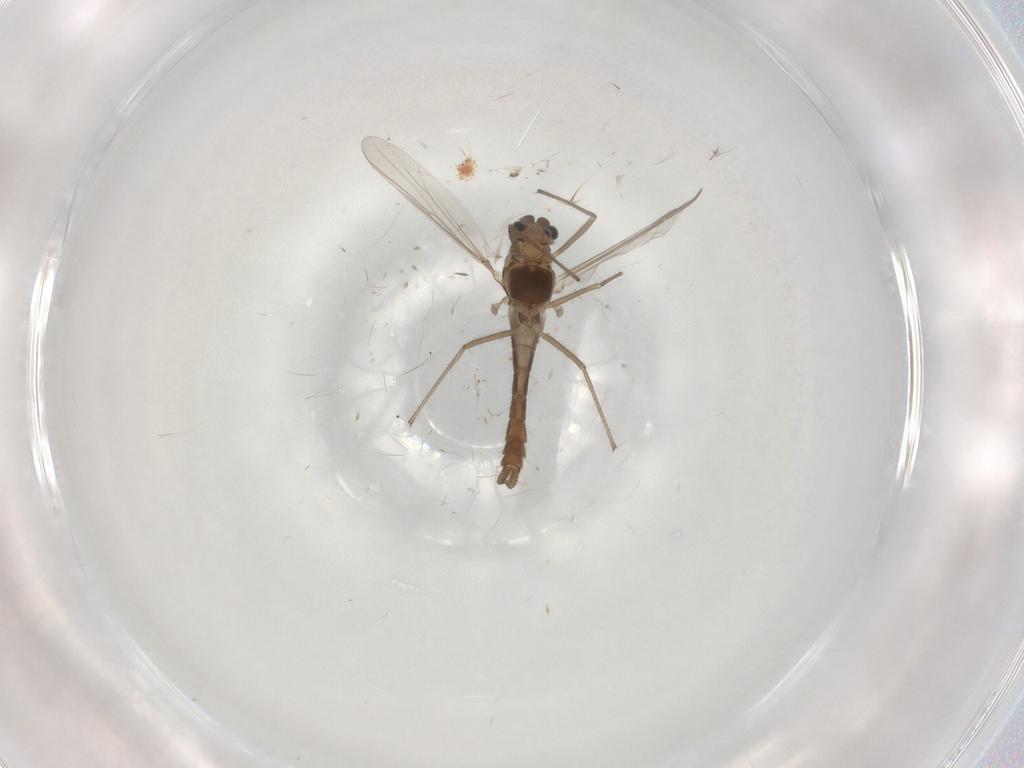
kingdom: Animalia
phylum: Arthropoda
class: Insecta
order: Diptera
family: Chironomidae
